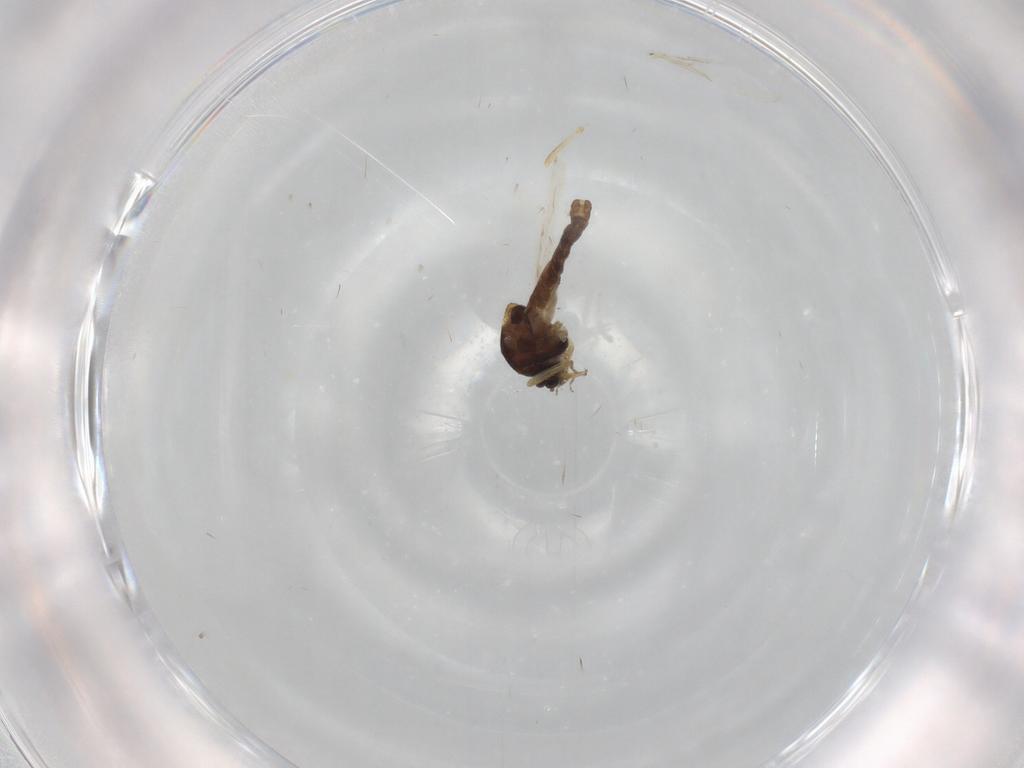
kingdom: Animalia
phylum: Arthropoda
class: Insecta
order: Diptera
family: Ceratopogonidae
